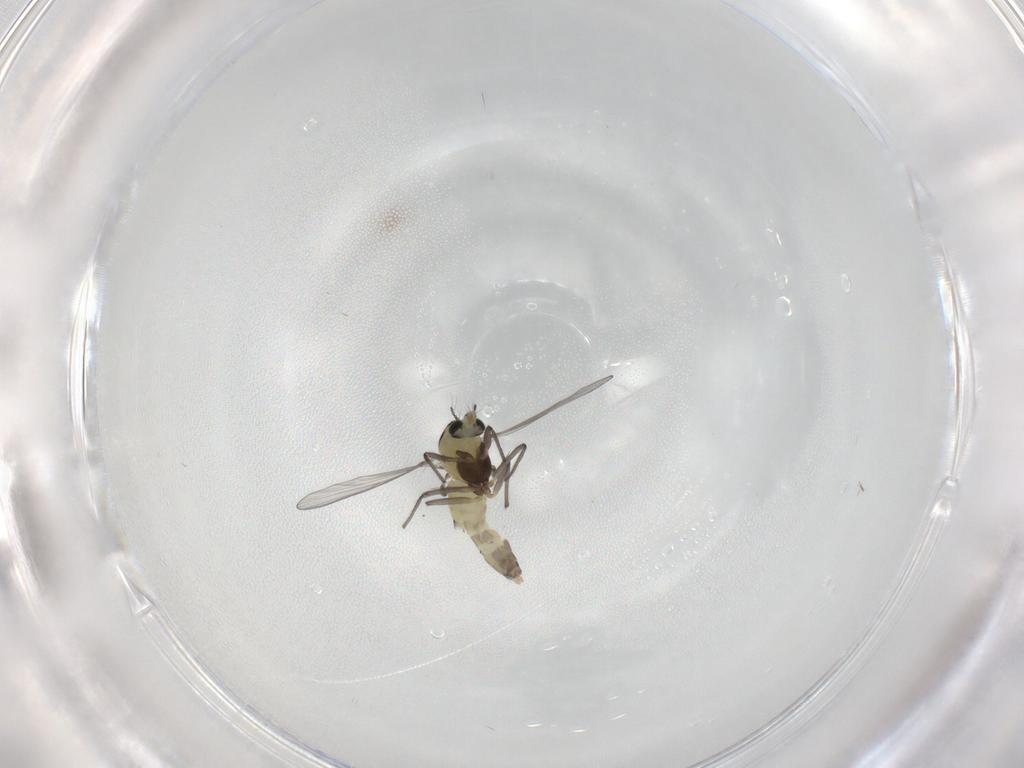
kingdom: Animalia
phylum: Arthropoda
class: Insecta
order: Diptera
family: Chironomidae
